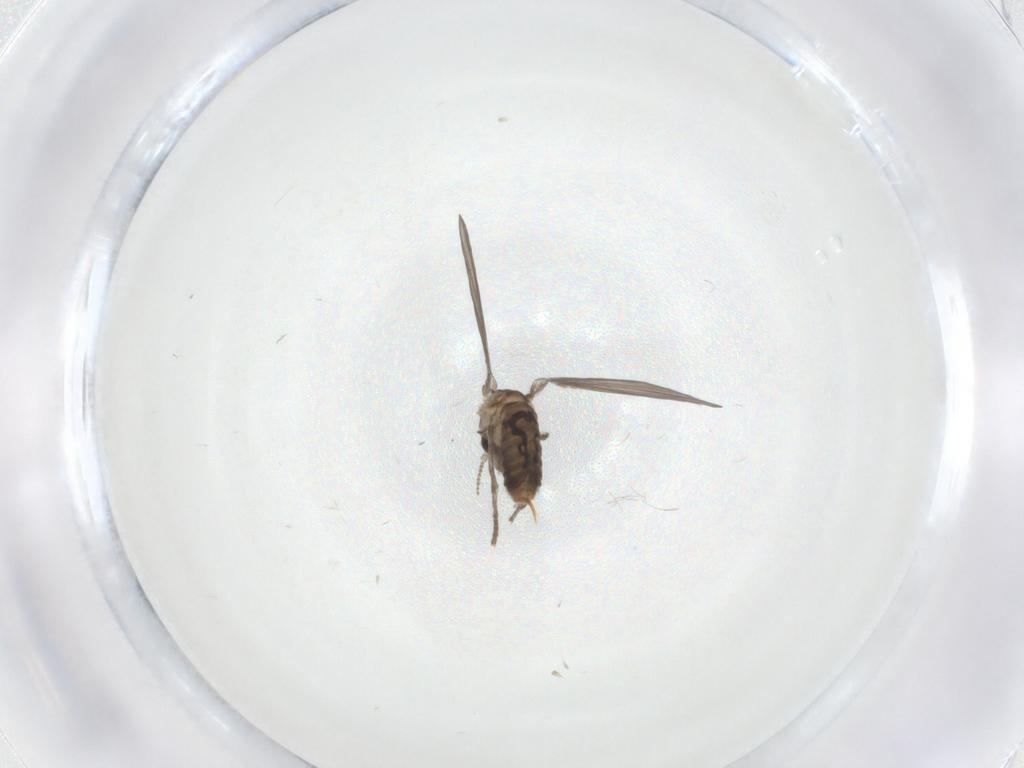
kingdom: Animalia
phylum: Arthropoda
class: Insecta
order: Diptera
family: Psychodidae
